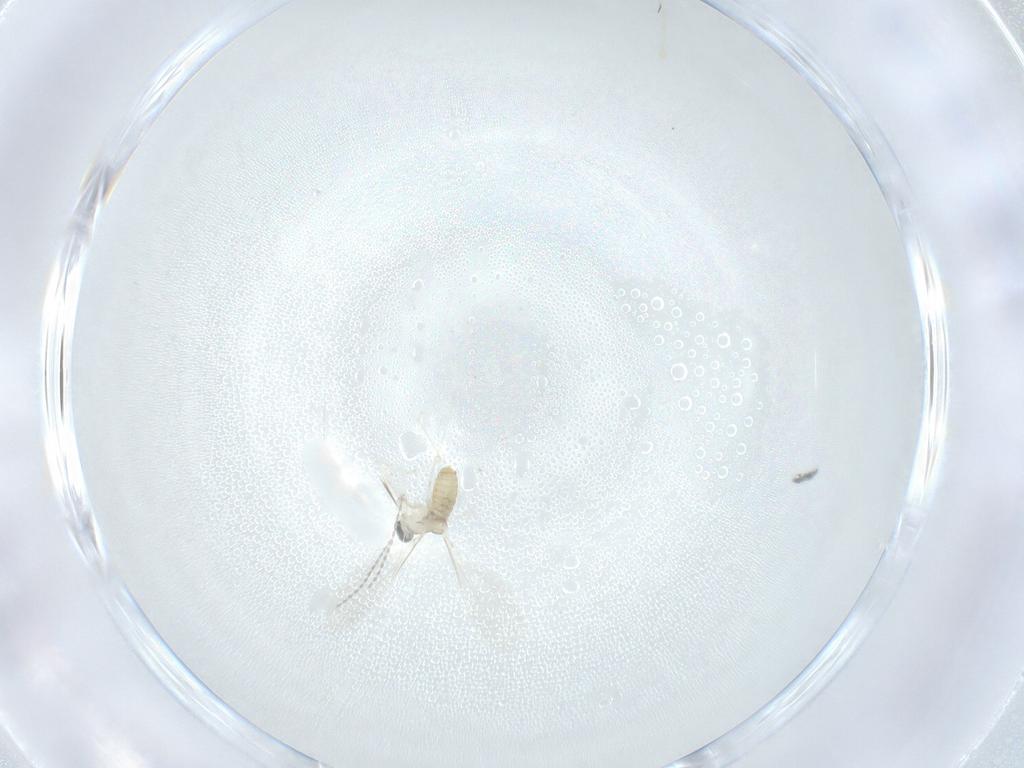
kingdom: Animalia
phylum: Arthropoda
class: Insecta
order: Diptera
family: Cecidomyiidae
